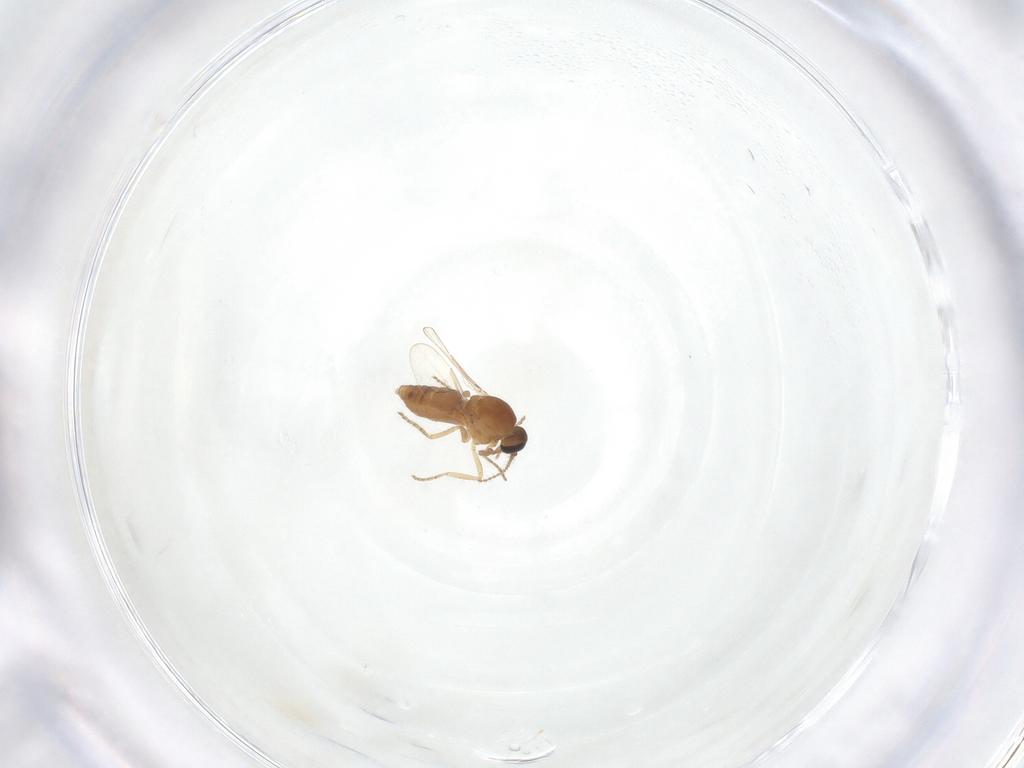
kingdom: Animalia
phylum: Arthropoda
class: Insecta
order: Diptera
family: Ceratopogonidae
